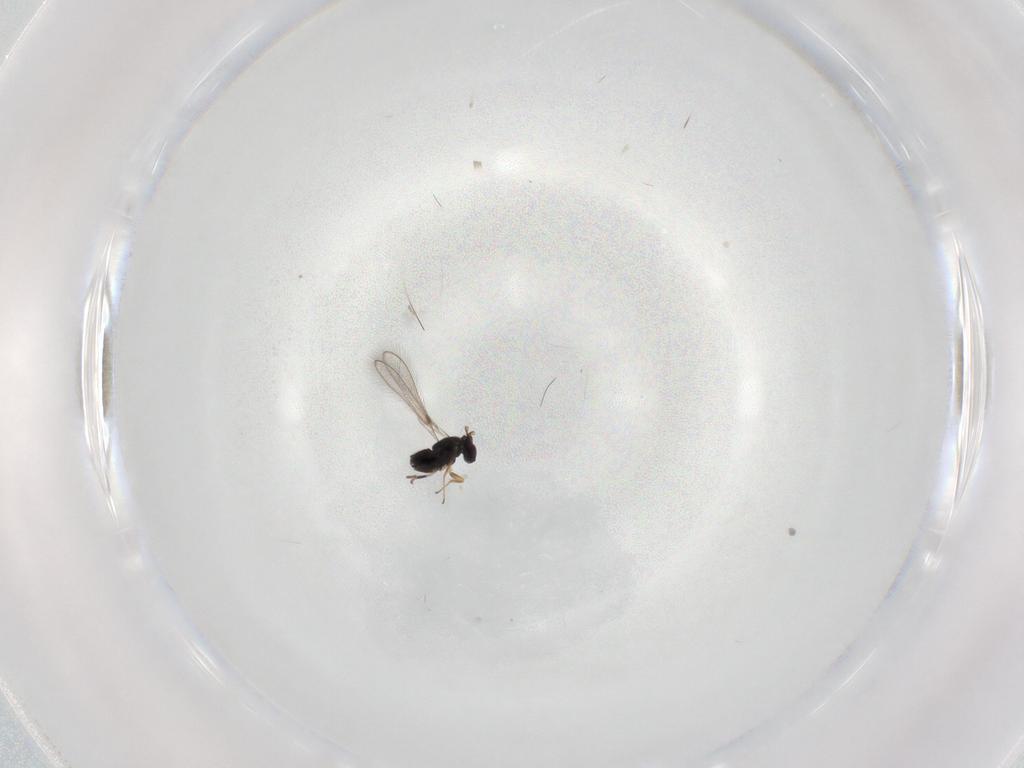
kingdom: Animalia
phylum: Arthropoda
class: Insecta
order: Hymenoptera
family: Mymaridae
